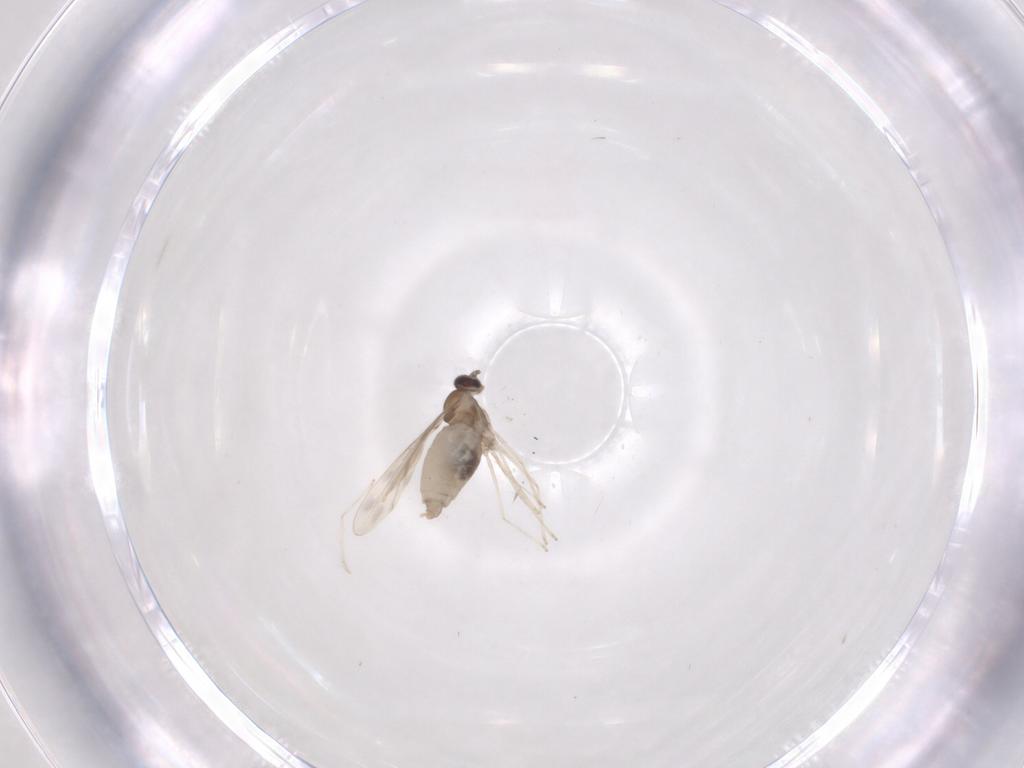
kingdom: Animalia
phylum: Arthropoda
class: Insecta
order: Diptera
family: Cecidomyiidae
